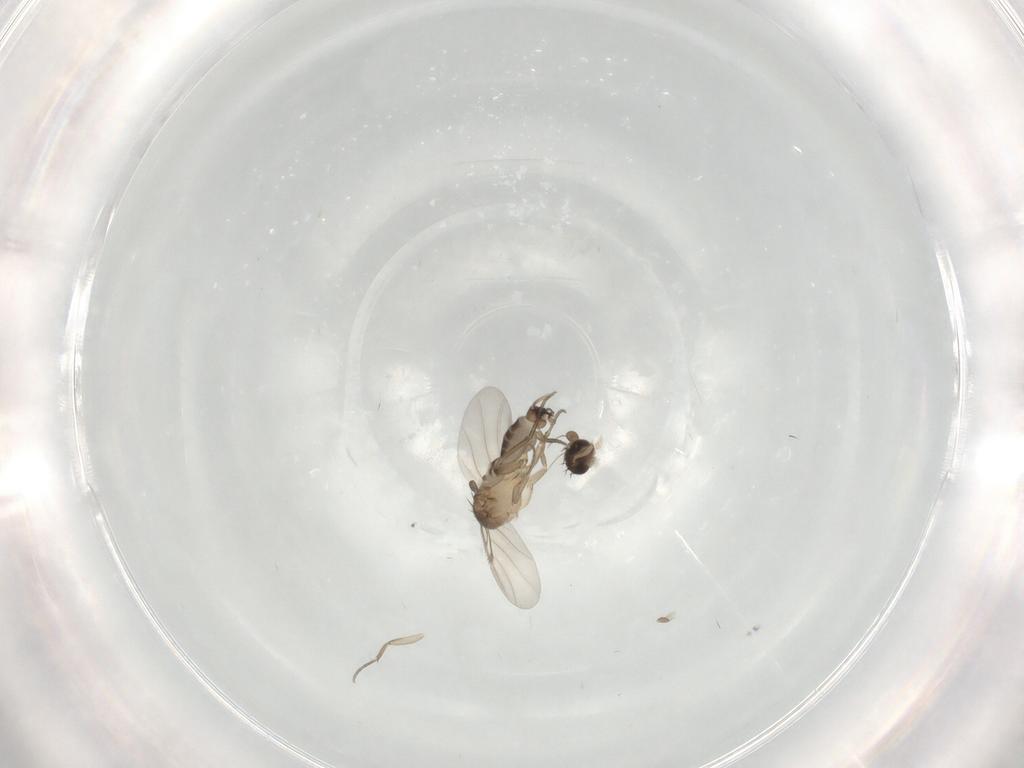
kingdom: Animalia
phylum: Arthropoda
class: Insecta
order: Diptera
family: Phoridae
